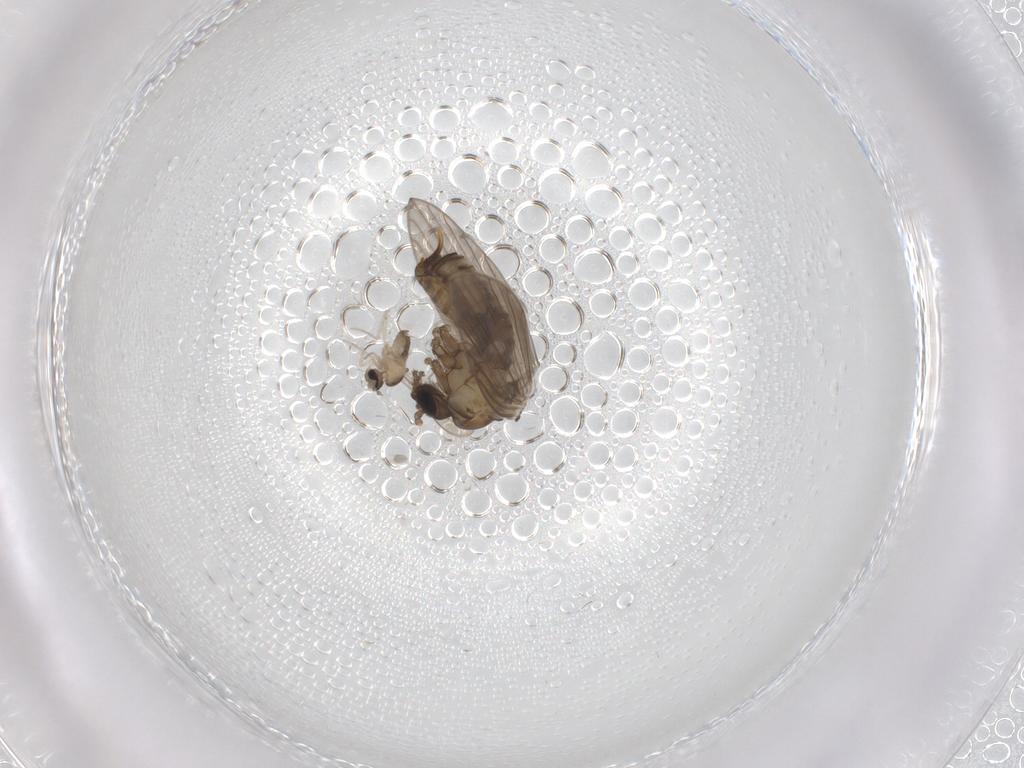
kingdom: Animalia
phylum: Arthropoda
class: Insecta
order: Diptera
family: Psychodidae
